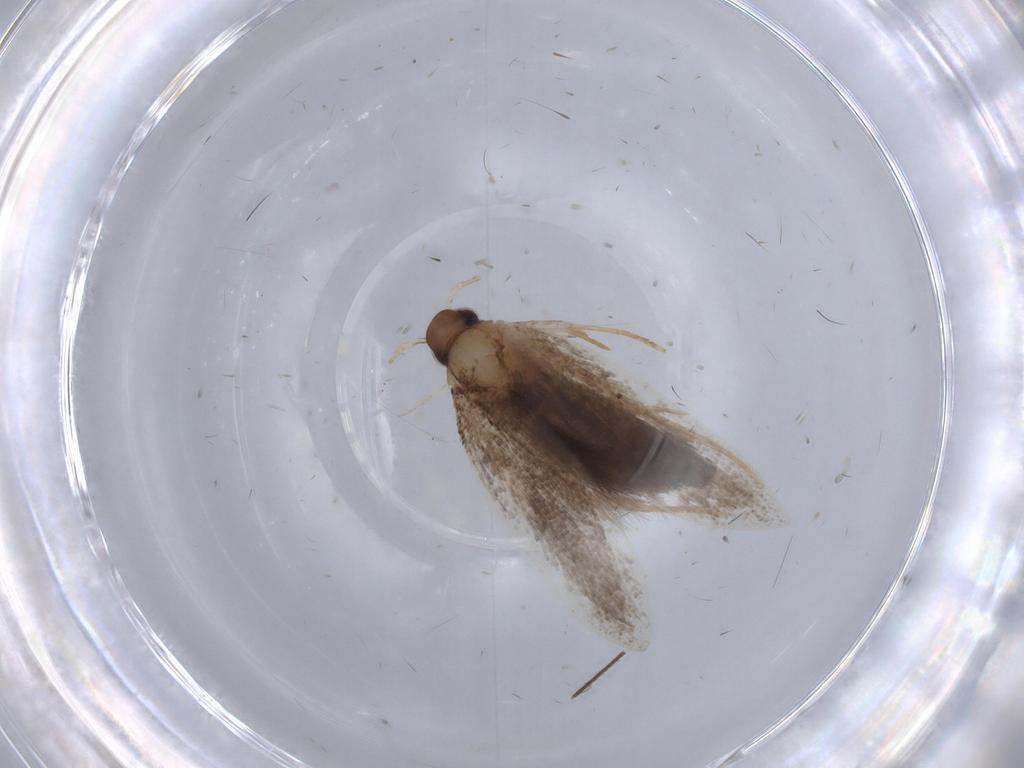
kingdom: Animalia
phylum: Arthropoda
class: Insecta
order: Lepidoptera
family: Cosmopterigidae
